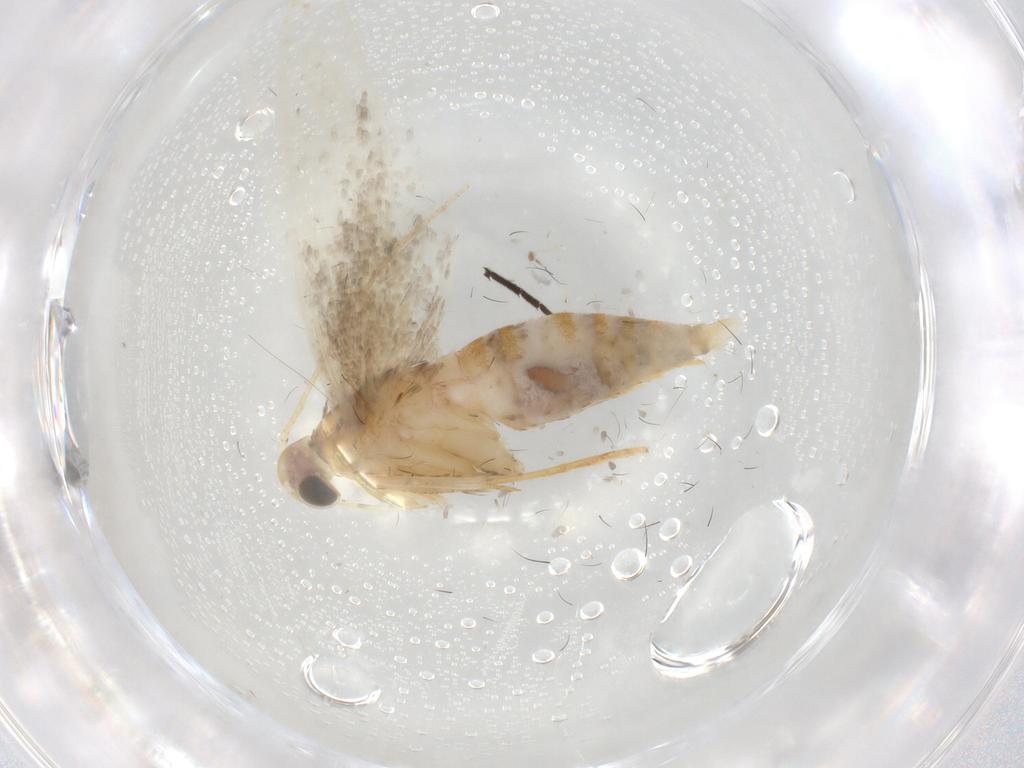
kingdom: Animalia
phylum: Arthropoda
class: Insecta
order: Lepidoptera
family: Oecophoridae
